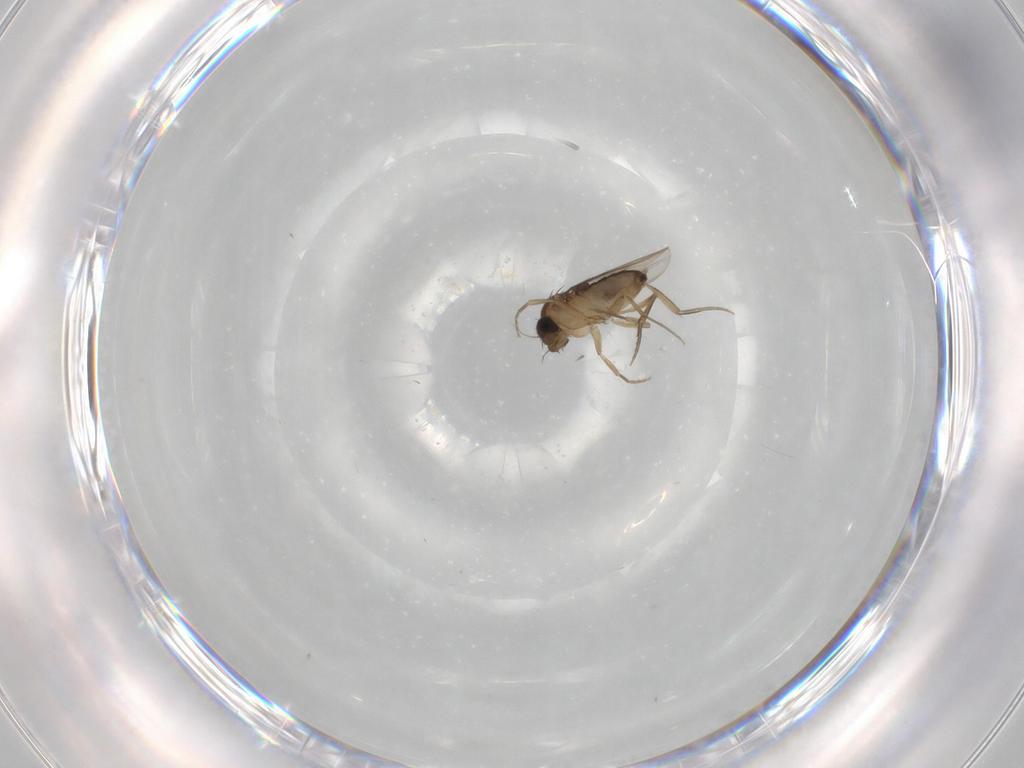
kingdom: Animalia
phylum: Arthropoda
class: Insecta
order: Diptera
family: Phoridae
